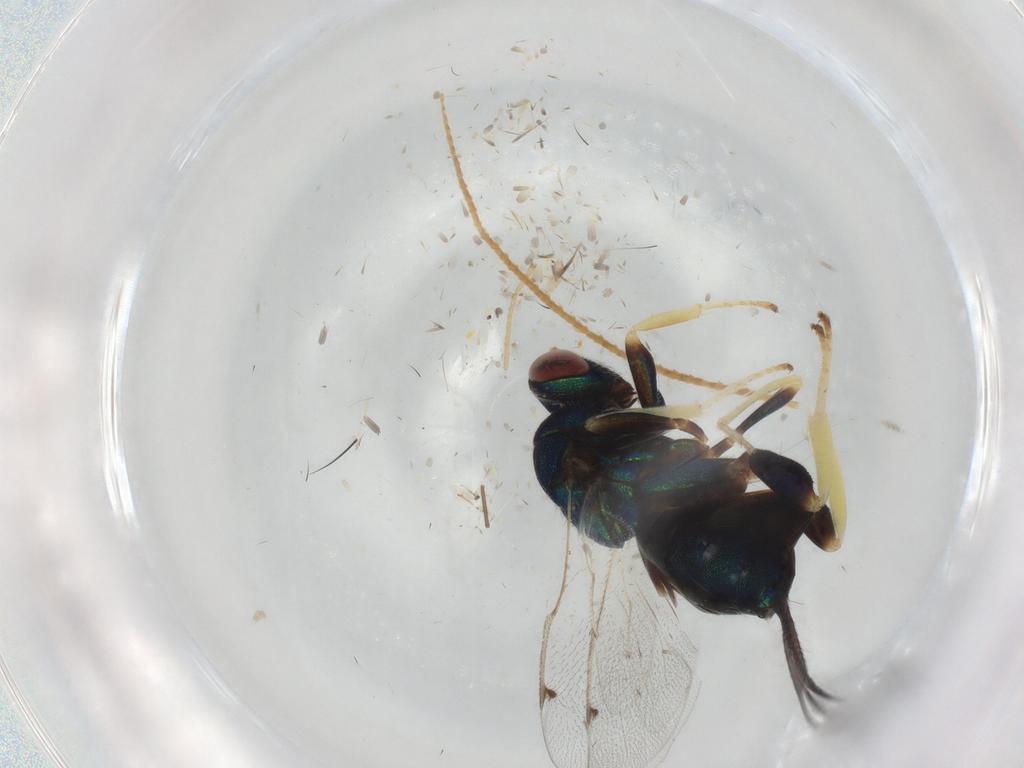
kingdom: Animalia
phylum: Arthropoda
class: Insecta
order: Hymenoptera
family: Torymidae
